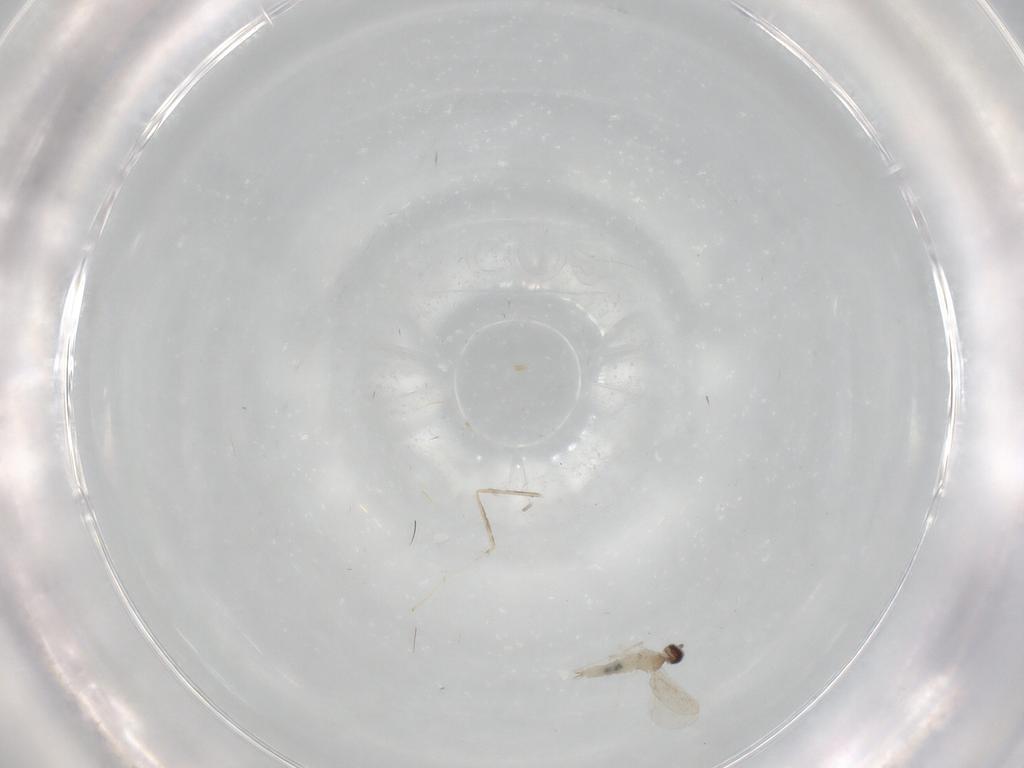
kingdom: Animalia
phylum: Arthropoda
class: Insecta
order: Diptera
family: Cecidomyiidae
